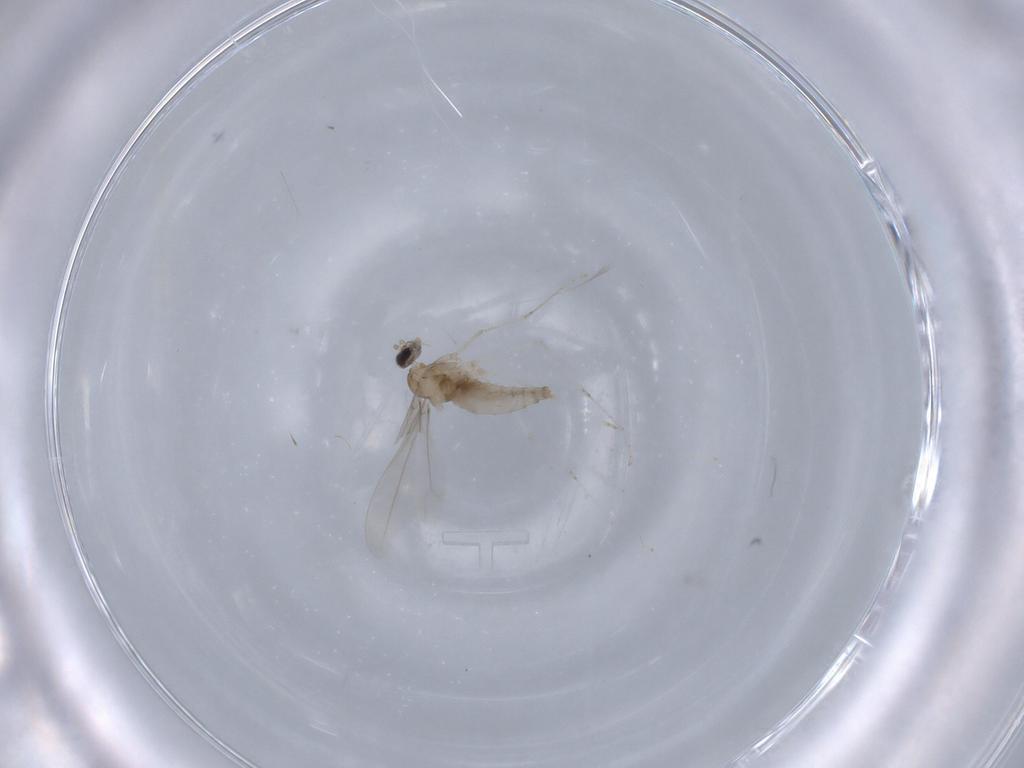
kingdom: Animalia
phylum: Arthropoda
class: Insecta
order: Diptera
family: Cecidomyiidae
